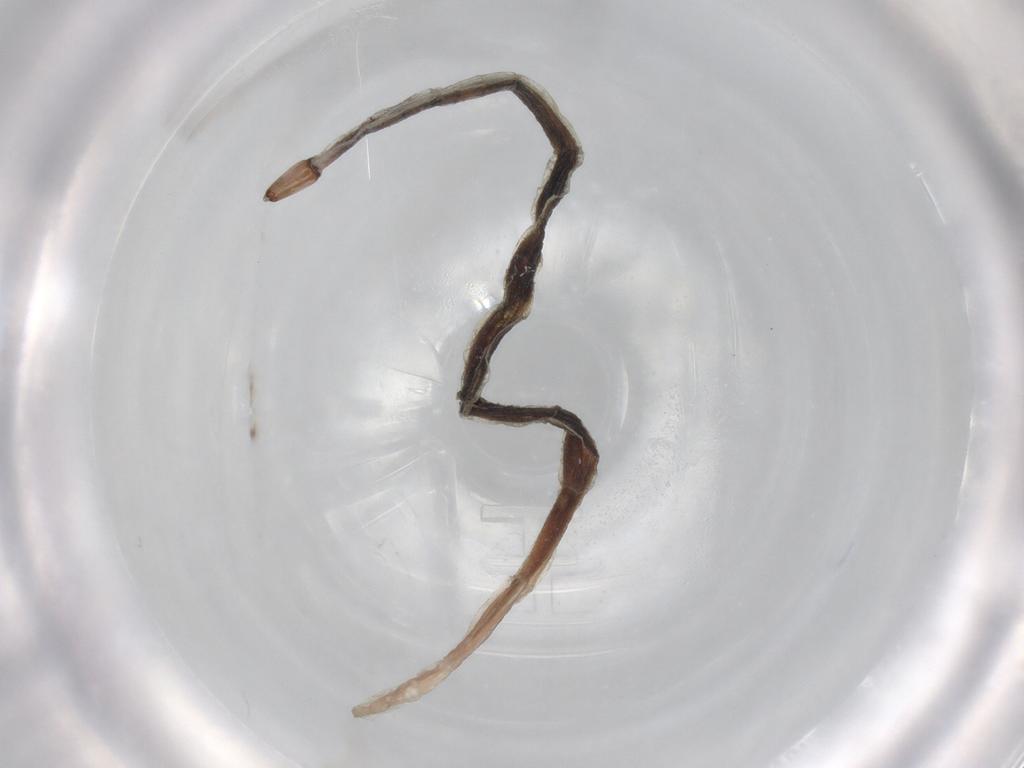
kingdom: Animalia
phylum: Arthropoda
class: Insecta
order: Diptera
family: Ceratopogonidae
